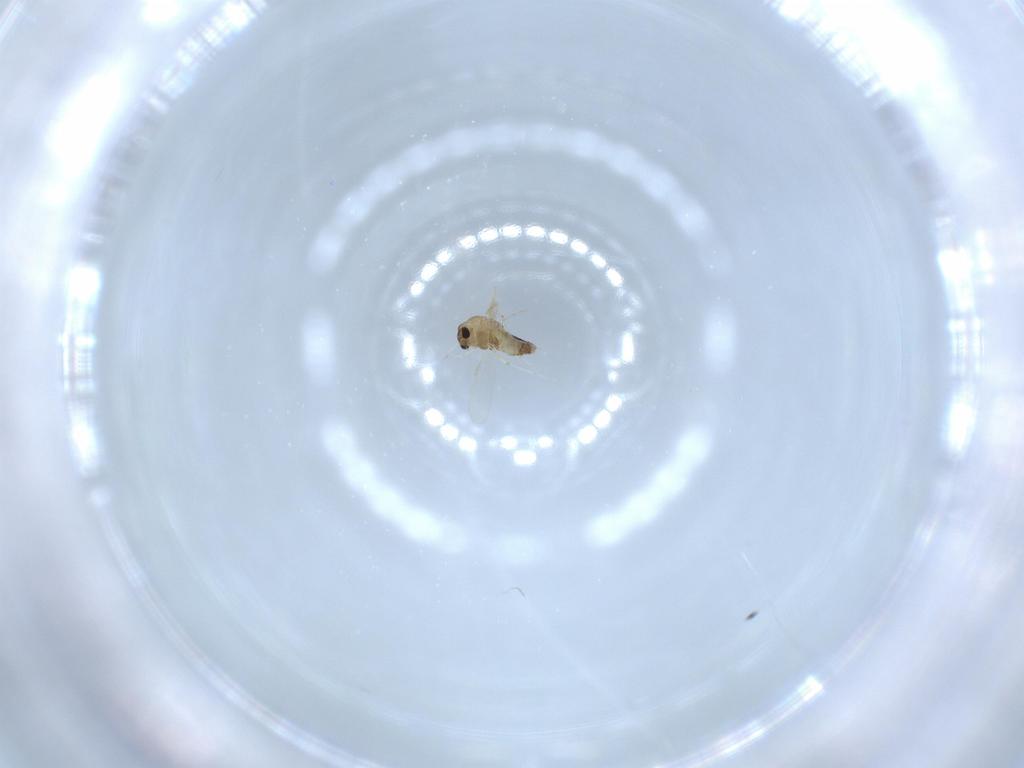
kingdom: Animalia
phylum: Arthropoda
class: Insecta
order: Diptera
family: Chironomidae
